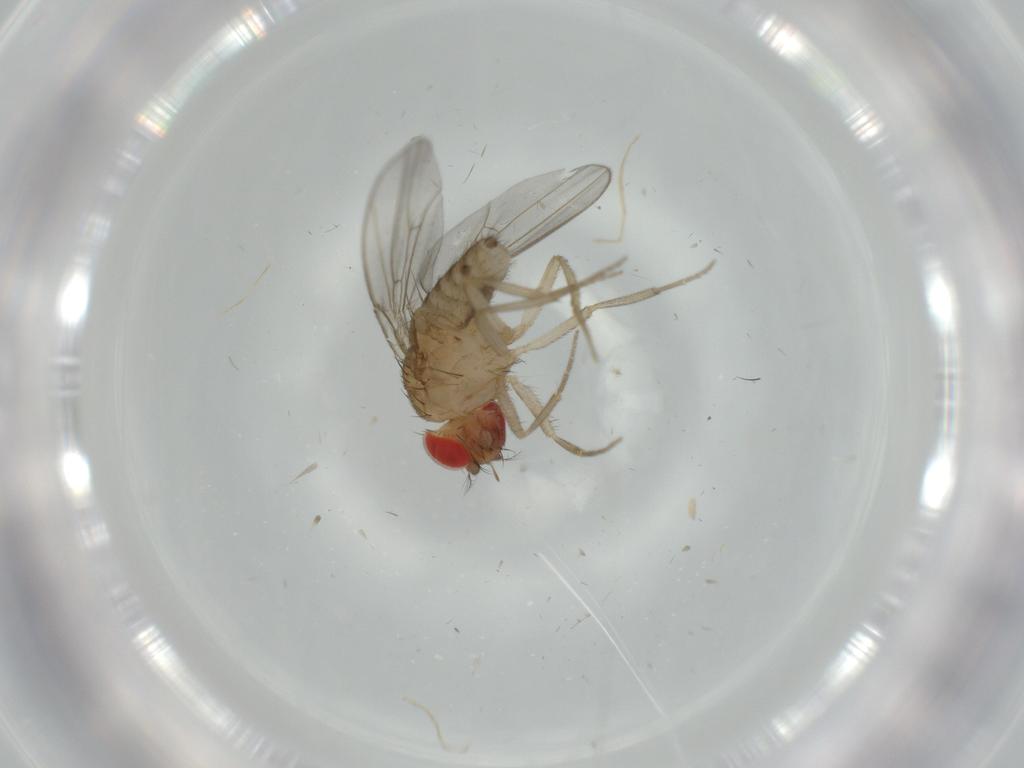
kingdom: Animalia
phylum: Arthropoda
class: Insecta
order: Diptera
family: Drosophilidae
